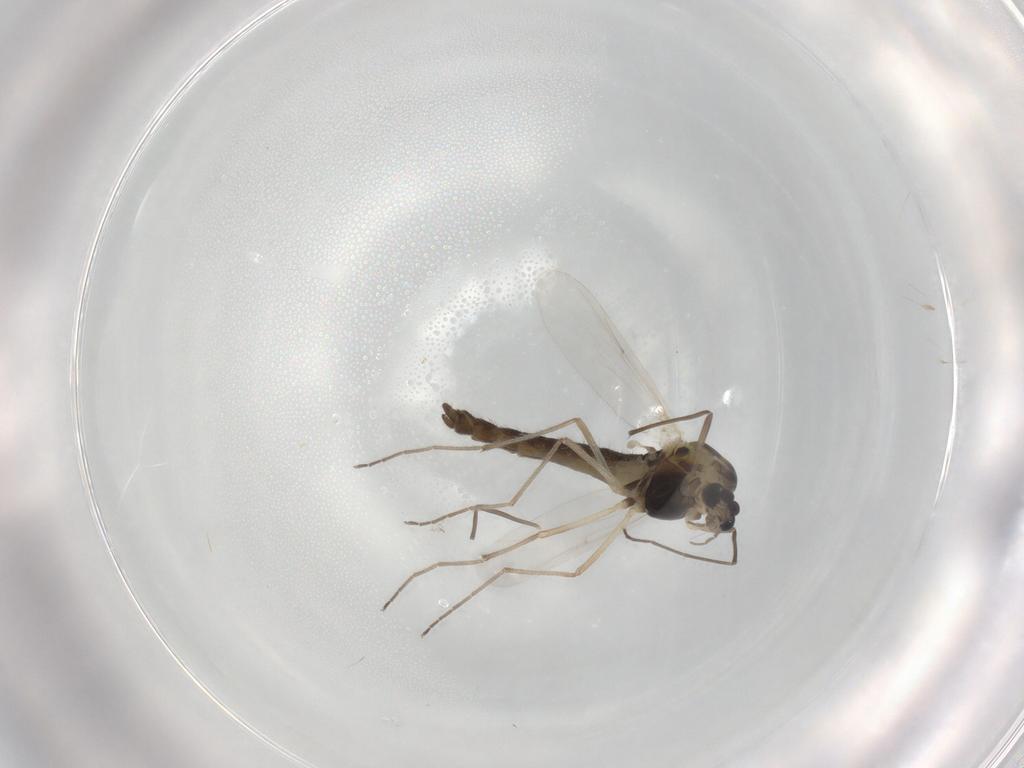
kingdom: Animalia
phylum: Arthropoda
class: Insecta
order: Diptera
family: Chironomidae
